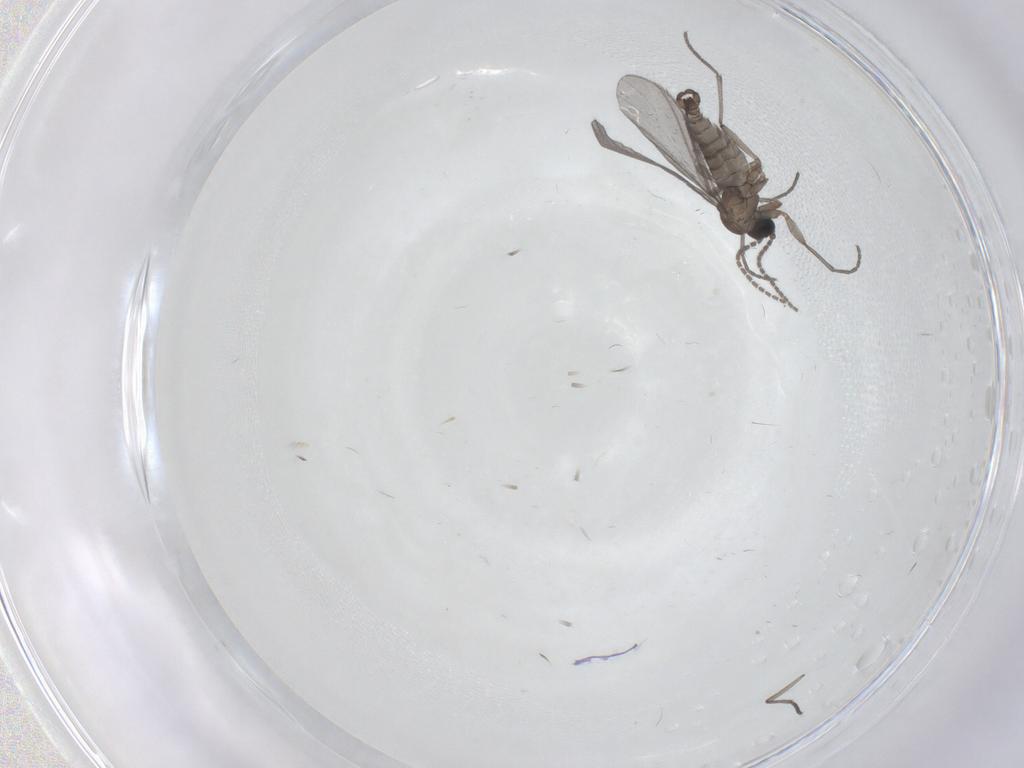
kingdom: Animalia
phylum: Arthropoda
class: Insecta
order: Diptera
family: Sciaridae
